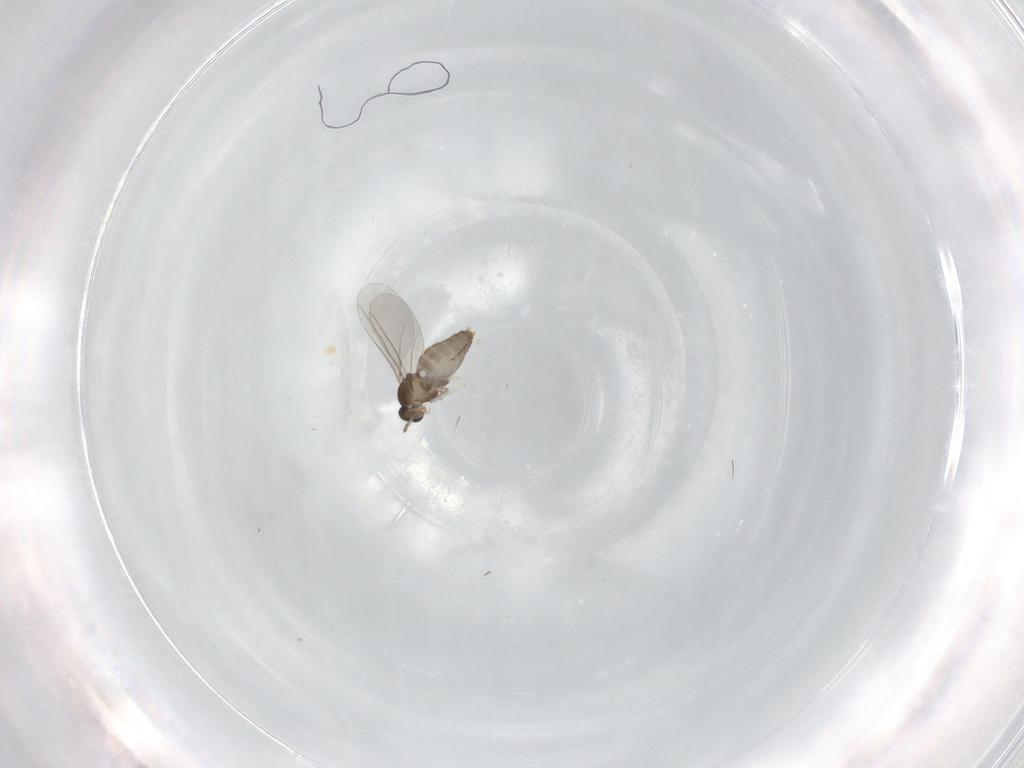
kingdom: Animalia
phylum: Arthropoda
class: Insecta
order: Diptera
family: Cecidomyiidae
